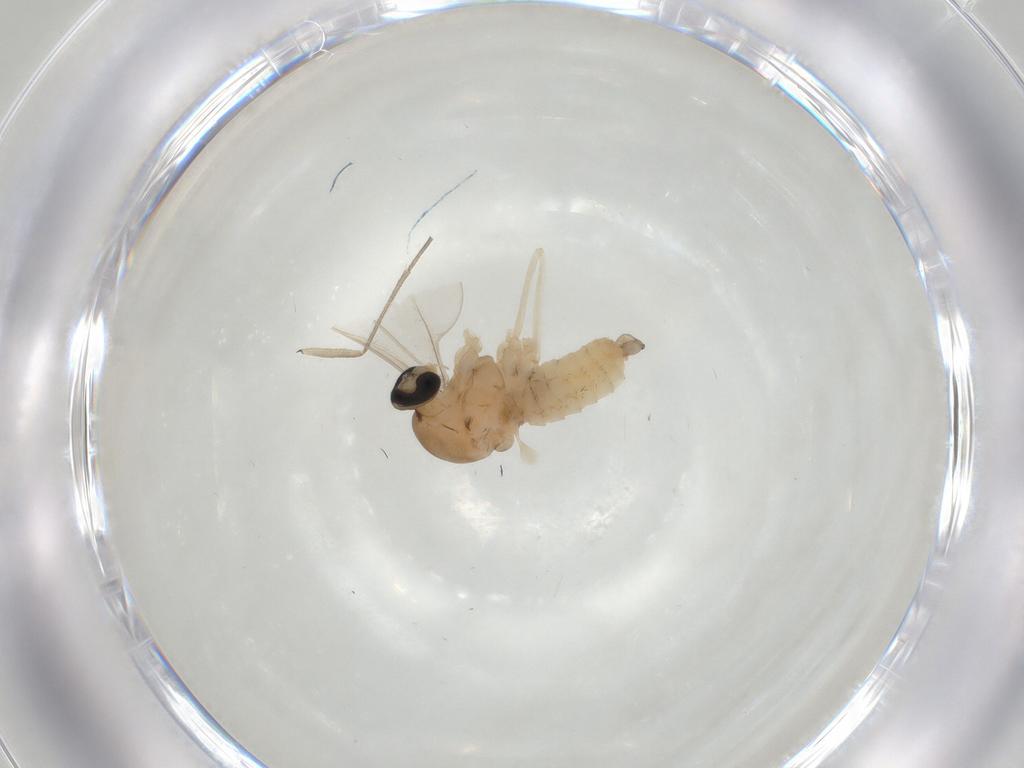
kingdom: Animalia
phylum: Arthropoda
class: Insecta
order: Diptera
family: Sciaridae
